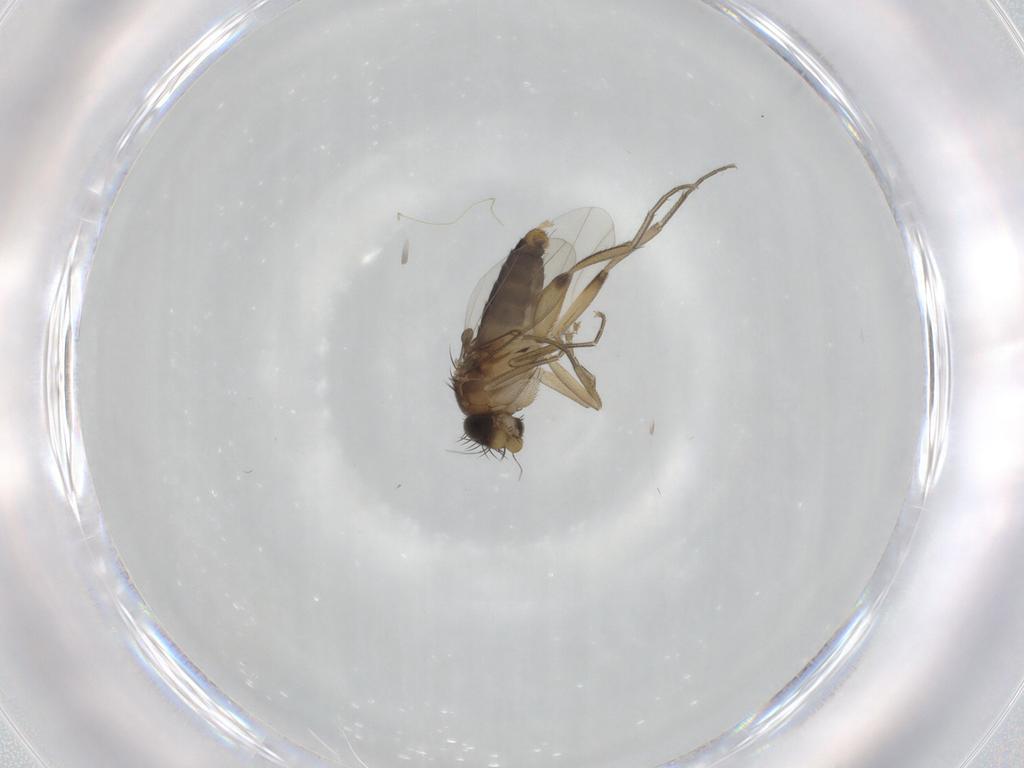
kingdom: Animalia
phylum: Arthropoda
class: Insecta
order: Diptera
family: Phoridae
